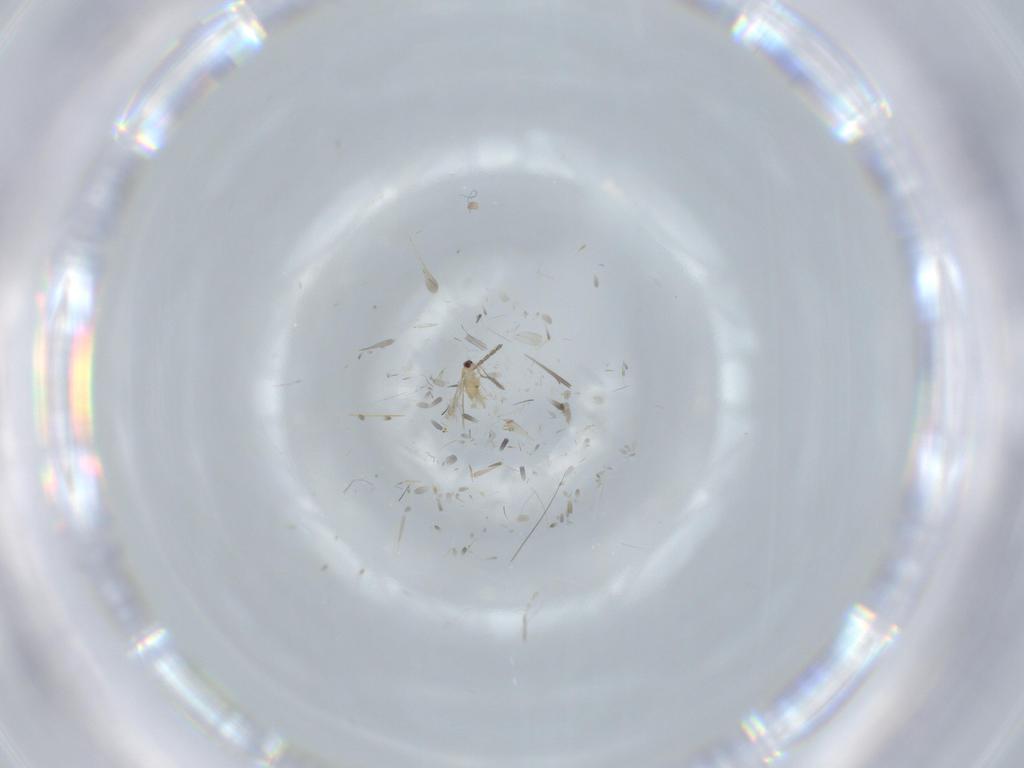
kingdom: Animalia
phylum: Arthropoda
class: Insecta
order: Diptera
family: Cecidomyiidae
